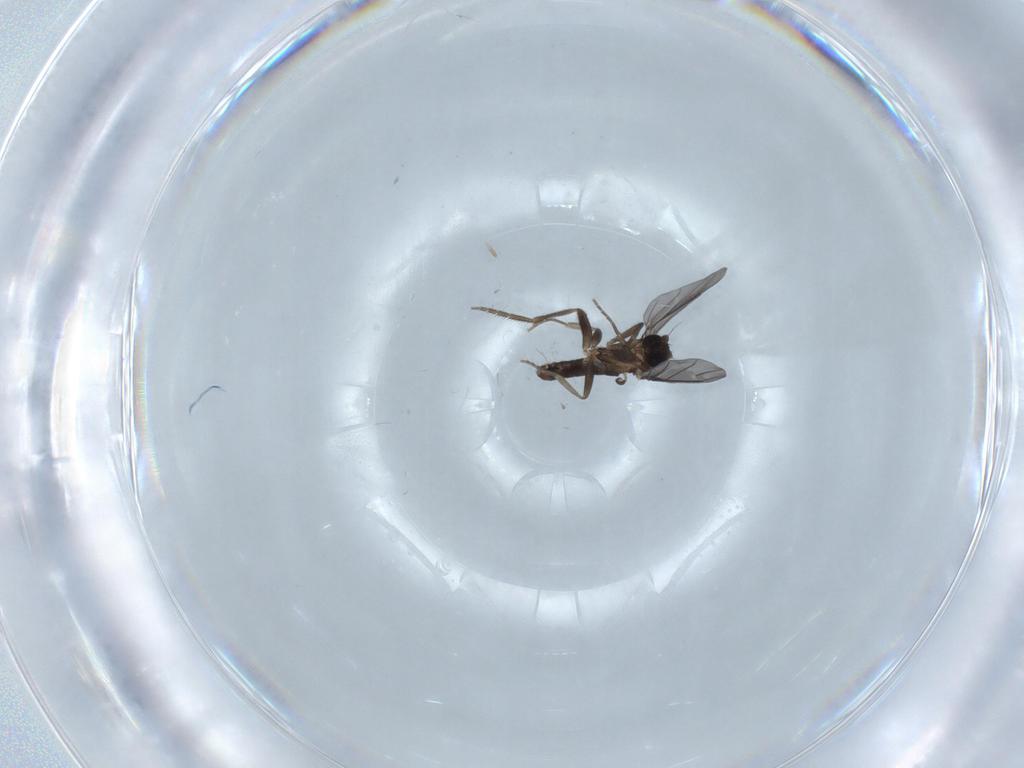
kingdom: Animalia
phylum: Arthropoda
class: Insecta
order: Diptera
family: Phoridae
